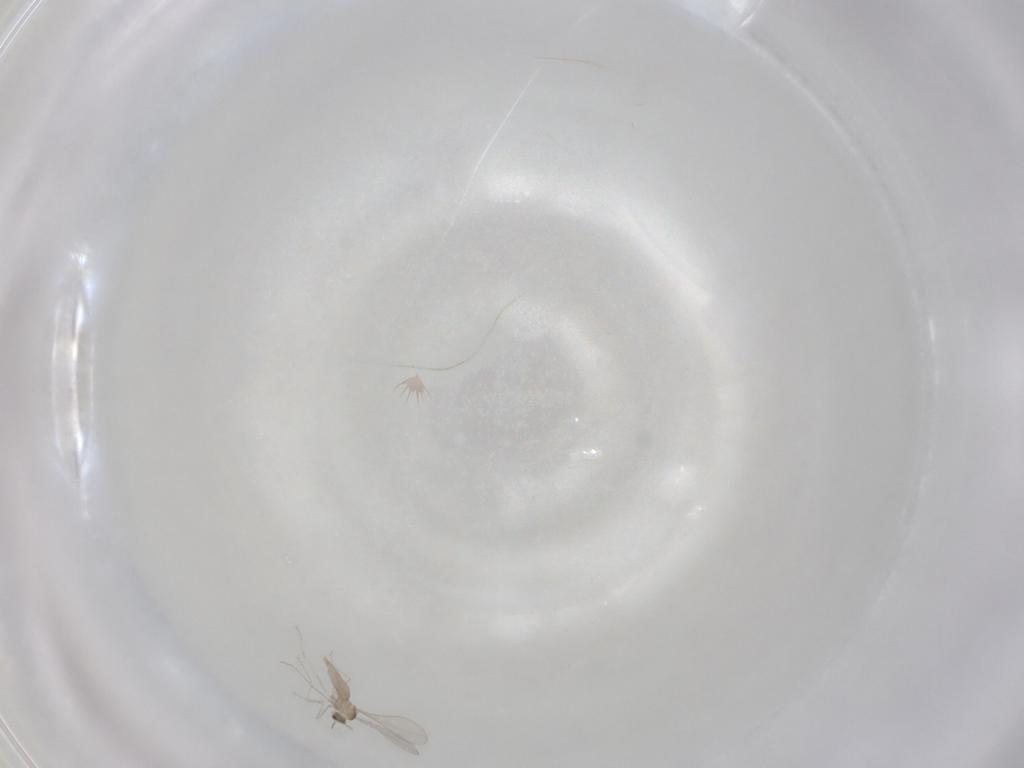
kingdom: Animalia
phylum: Arthropoda
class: Insecta
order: Diptera
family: Cecidomyiidae
